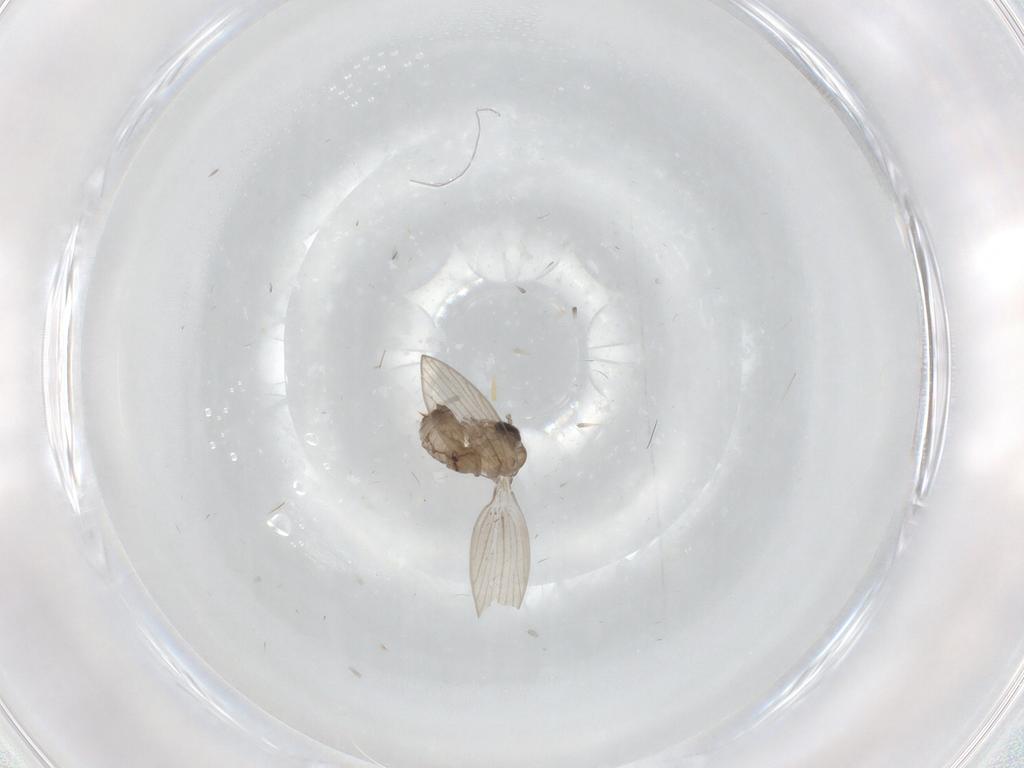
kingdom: Animalia
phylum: Arthropoda
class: Insecta
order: Diptera
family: Psychodidae
